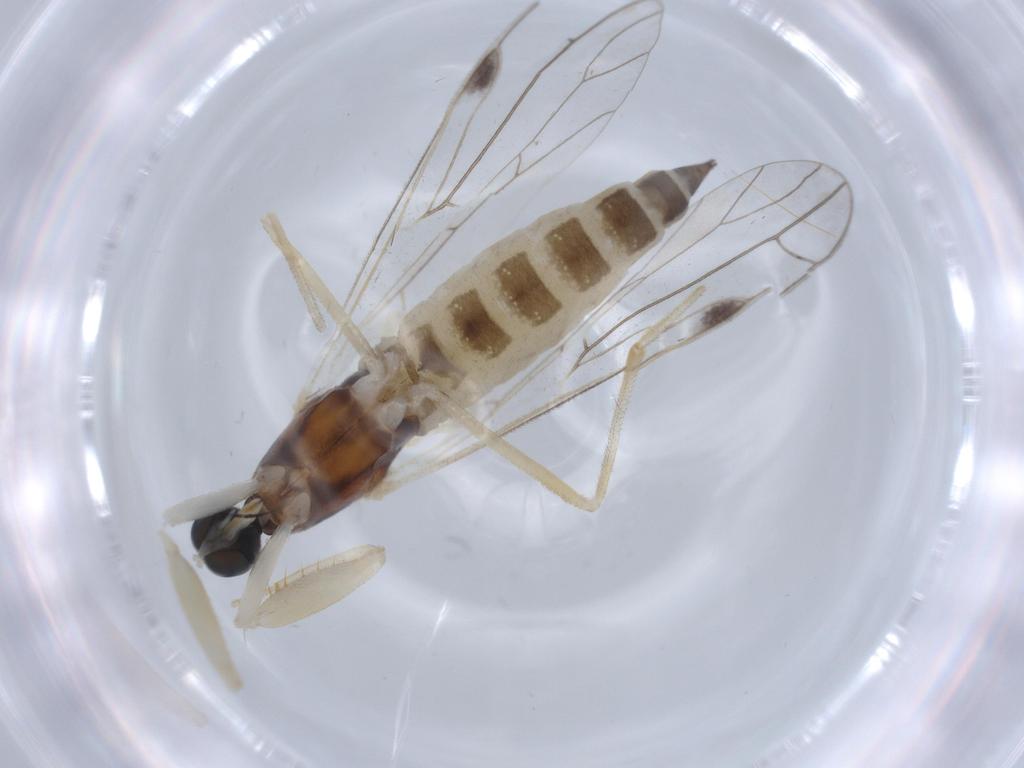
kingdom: Animalia
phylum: Arthropoda
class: Insecta
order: Diptera
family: Empididae
